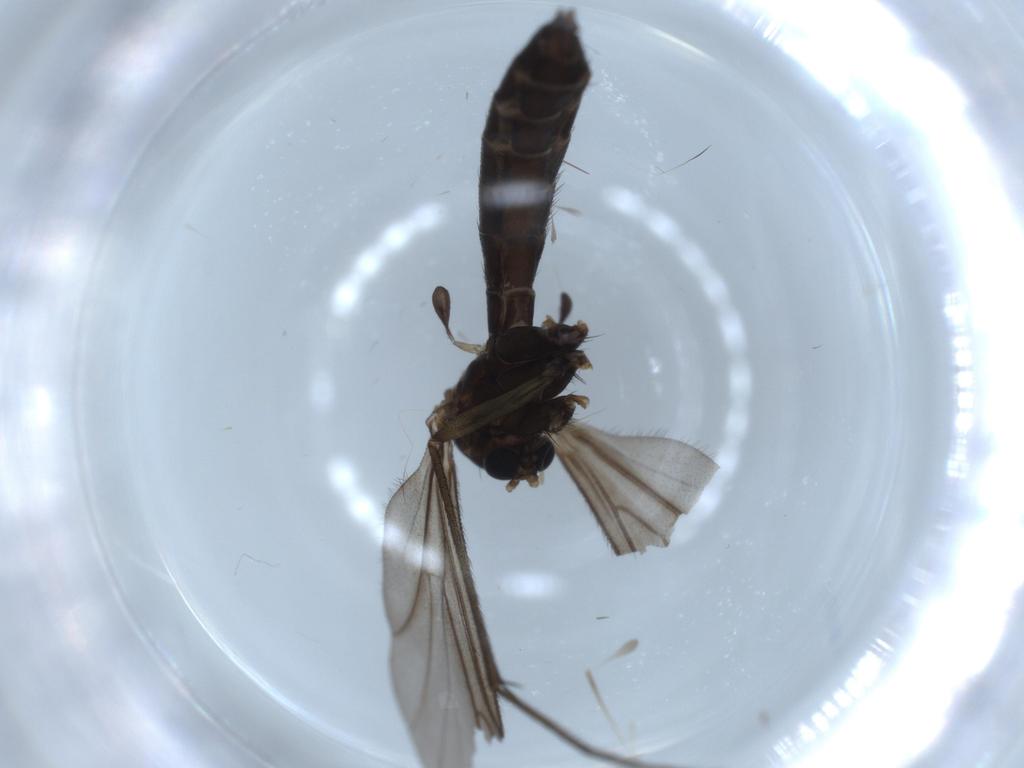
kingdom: Animalia
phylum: Arthropoda
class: Insecta
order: Diptera
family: Ditomyiidae
